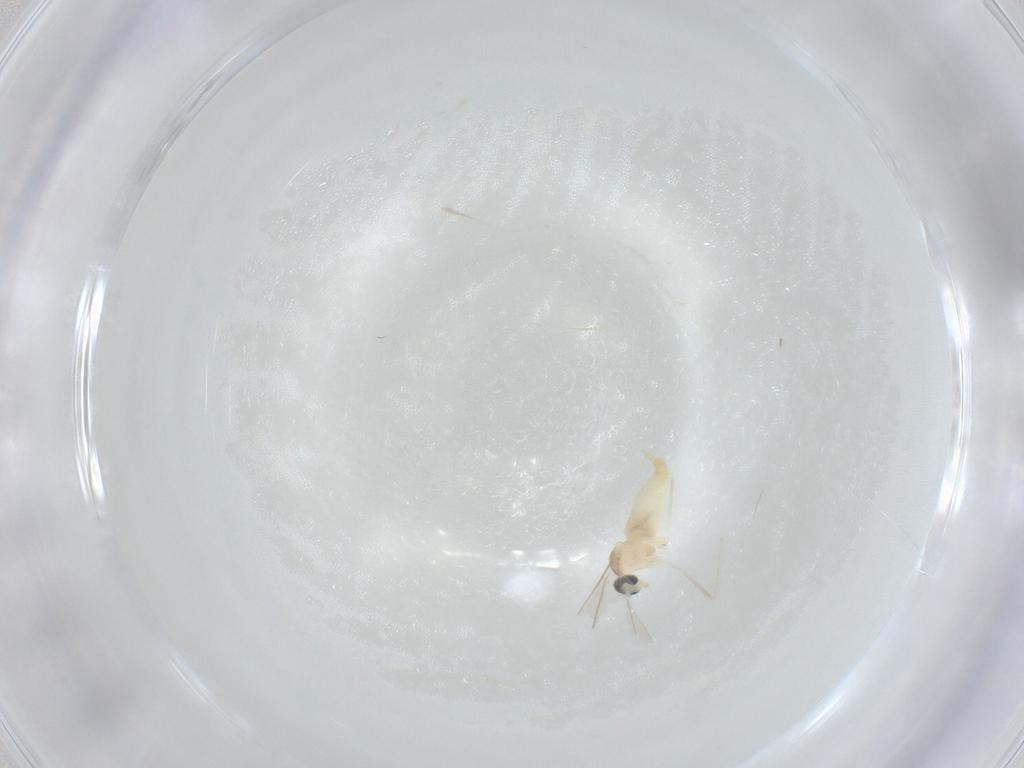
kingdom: Animalia
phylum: Arthropoda
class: Insecta
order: Diptera
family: Cecidomyiidae
